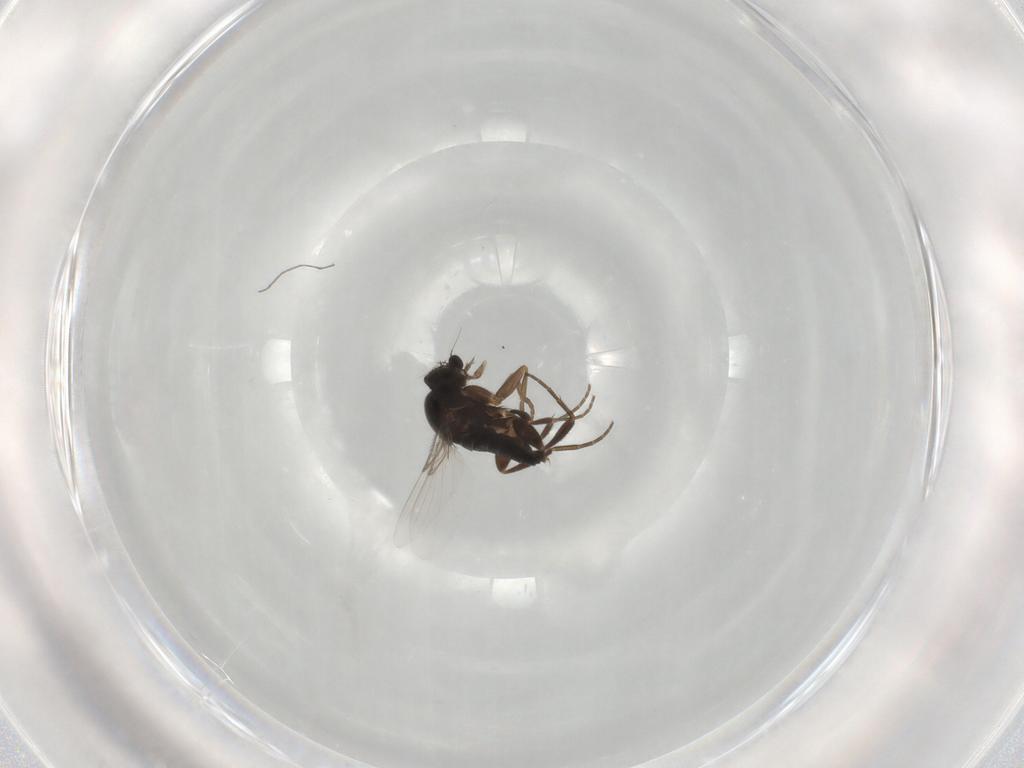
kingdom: Animalia
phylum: Arthropoda
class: Insecta
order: Diptera
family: Phoridae
